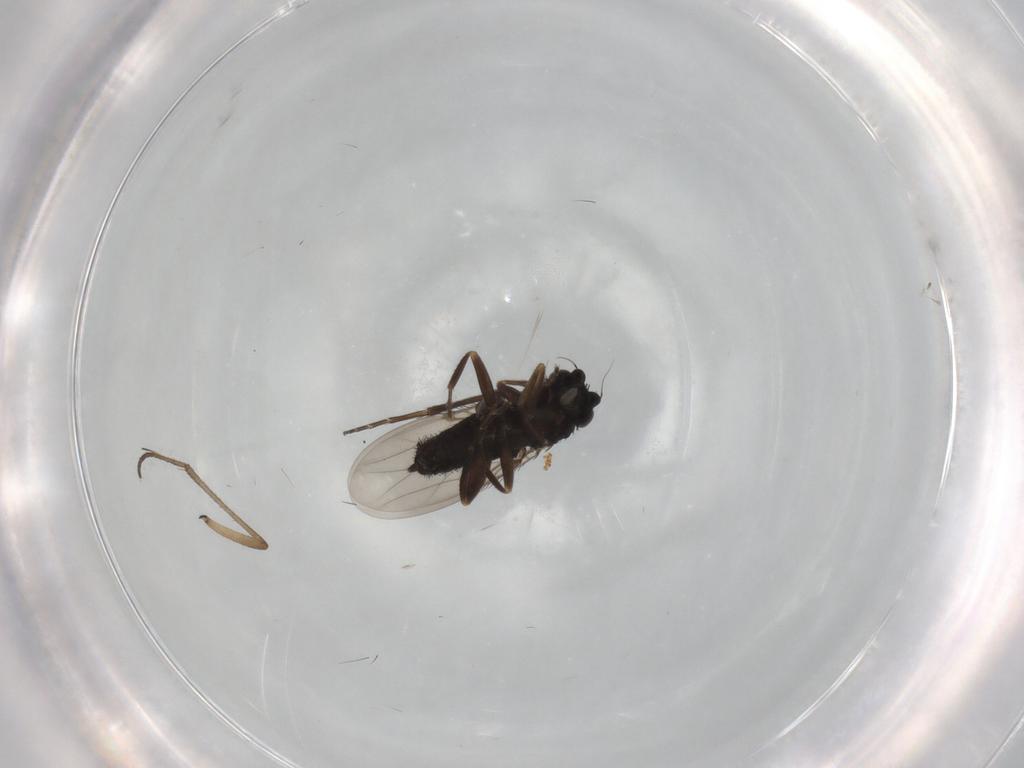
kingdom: Animalia
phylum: Arthropoda
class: Insecta
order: Diptera
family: Phoridae
